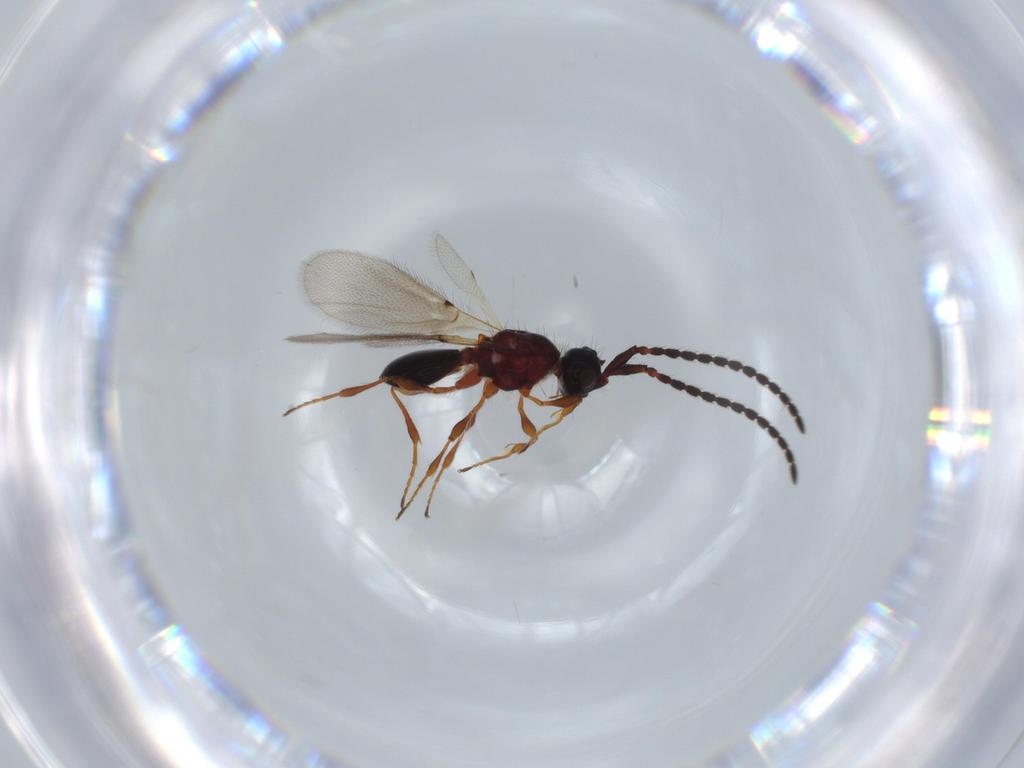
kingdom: Animalia
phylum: Arthropoda
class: Insecta
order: Hymenoptera
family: Diapriidae
